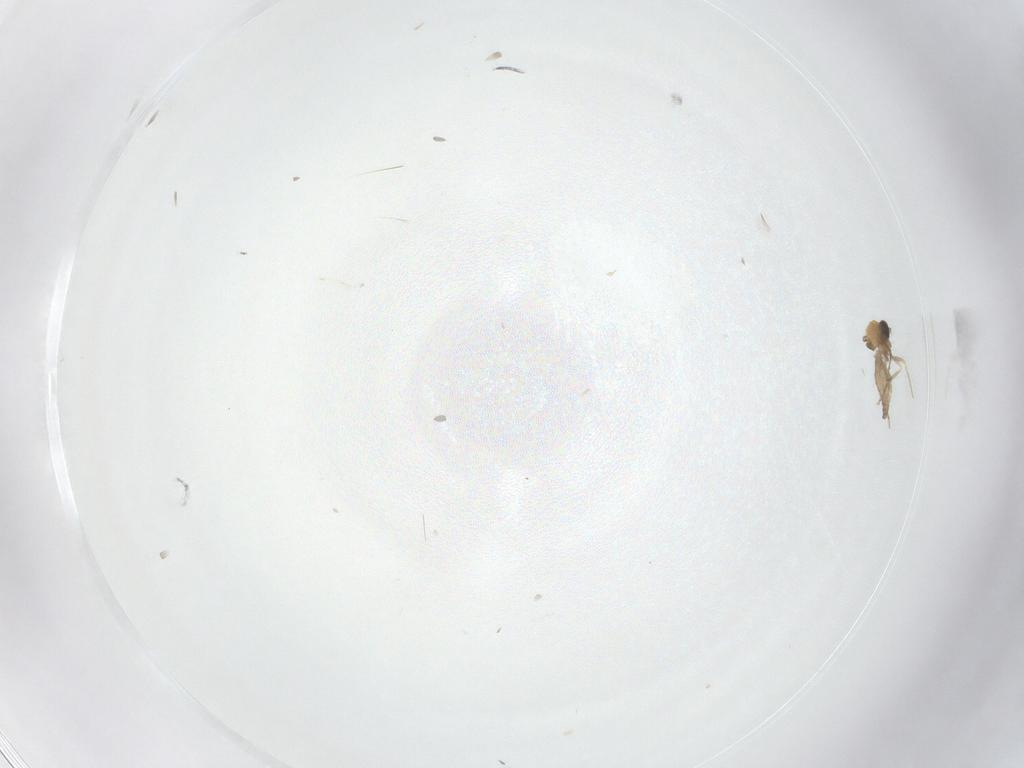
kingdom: Animalia
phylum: Arthropoda
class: Insecta
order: Diptera
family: Ceratopogonidae
